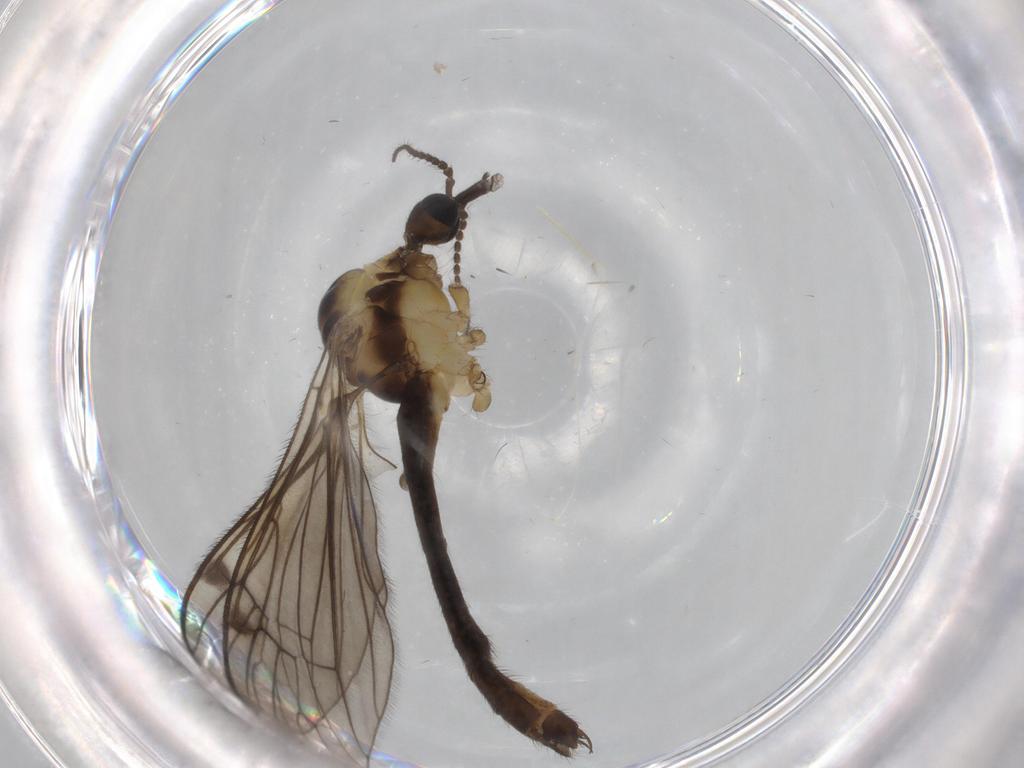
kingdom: Animalia
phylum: Arthropoda
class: Insecta
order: Diptera
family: Limoniidae
